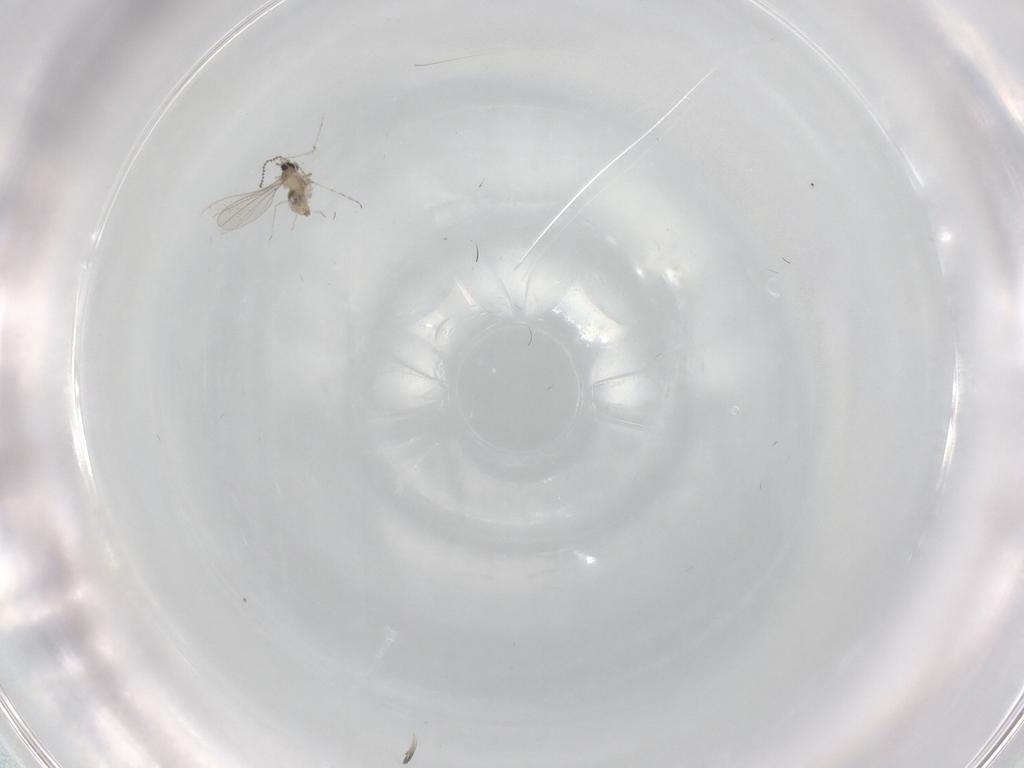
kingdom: Animalia
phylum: Arthropoda
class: Insecta
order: Diptera
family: Cecidomyiidae
